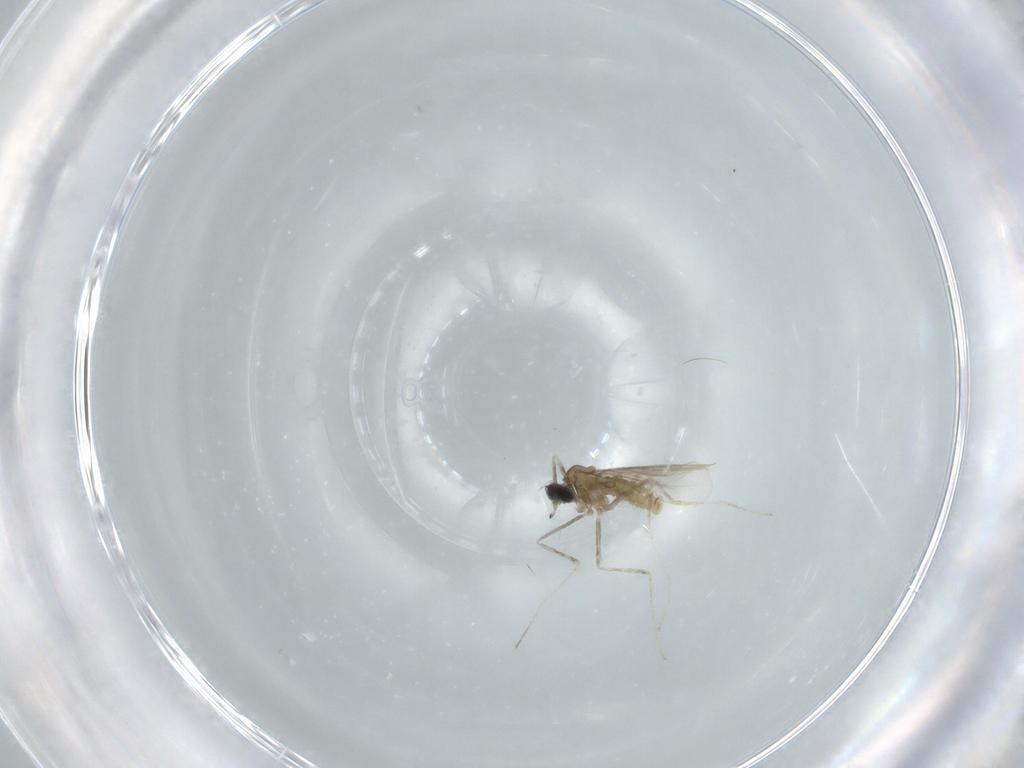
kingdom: Animalia
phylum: Arthropoda
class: Insecta
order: Diptera
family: Cecidomyiidae
